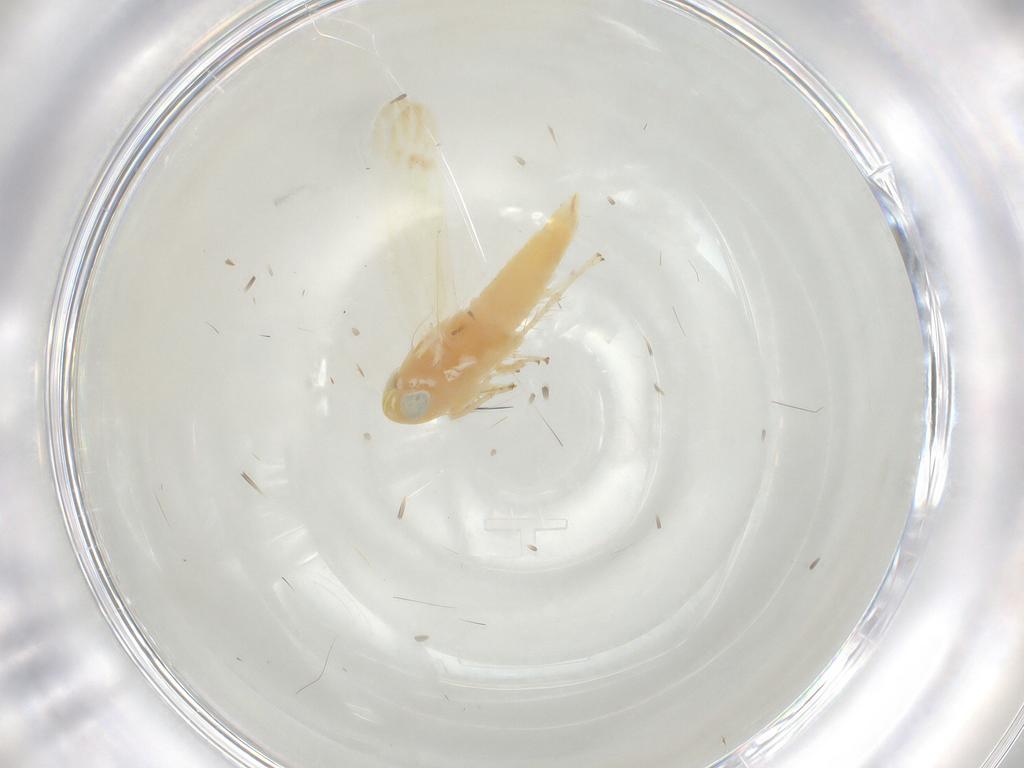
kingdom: Animalia
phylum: Arthropoda
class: Insecta
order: Hemiptera
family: Cicadellidae
